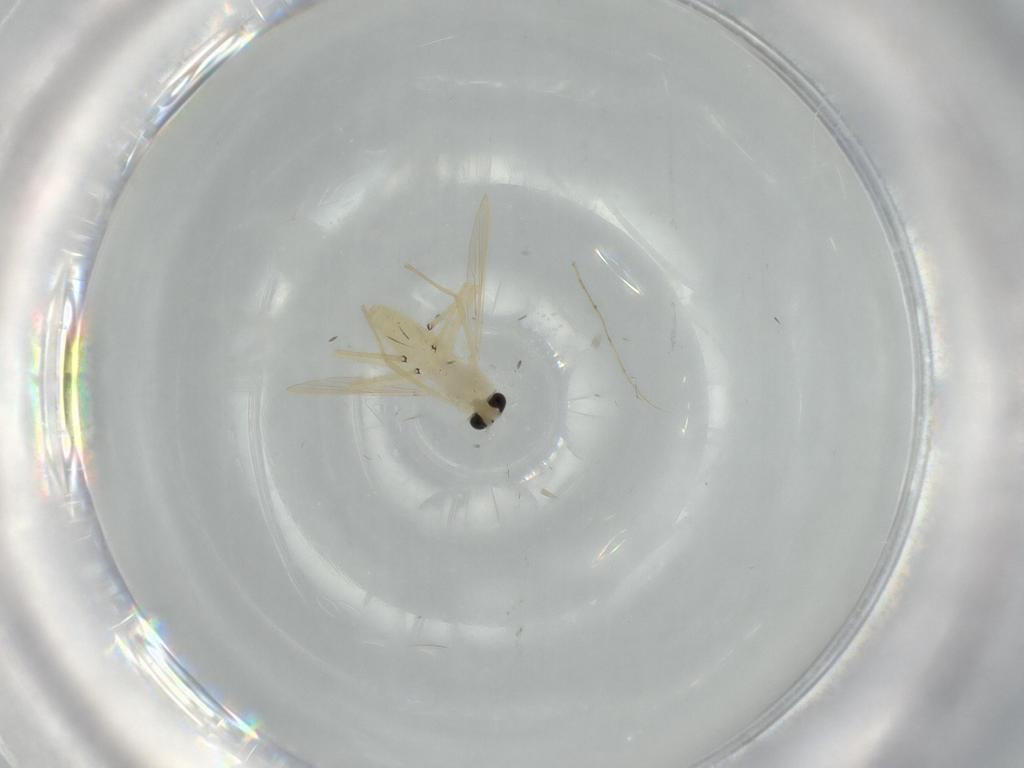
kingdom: Animalia
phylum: Arthropoda
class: Insecta
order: Diptera
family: Chironomidae
